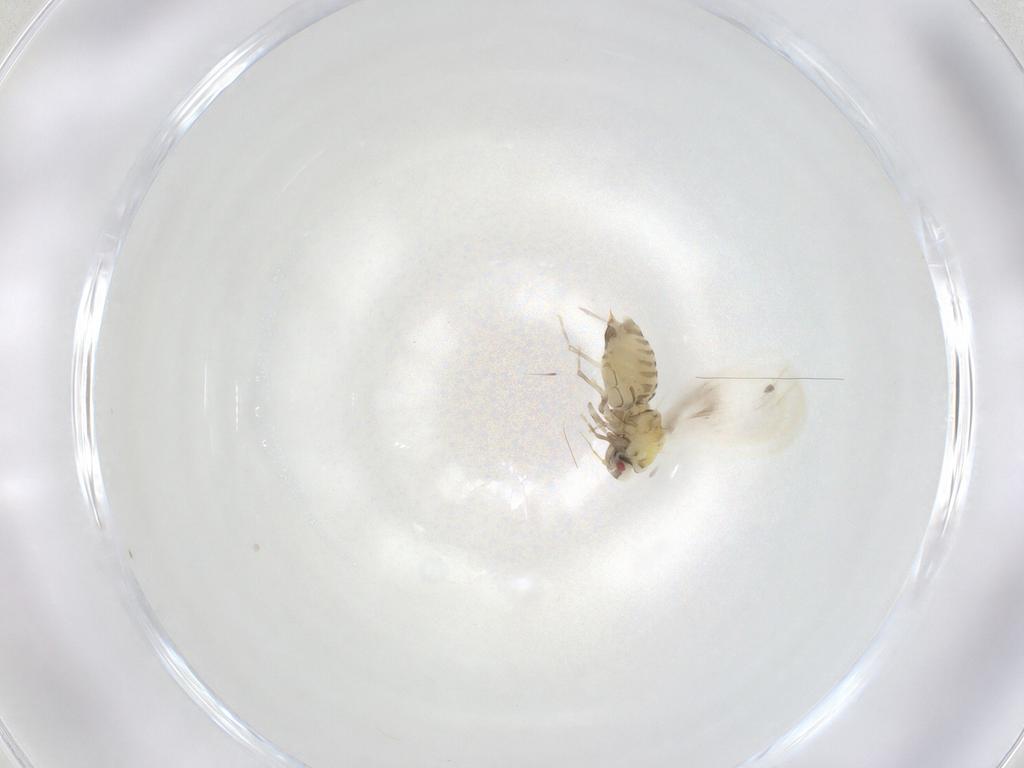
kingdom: Animalia
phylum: Arthropoda
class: Insecta
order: Hemiptera
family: Aleyrodidae
